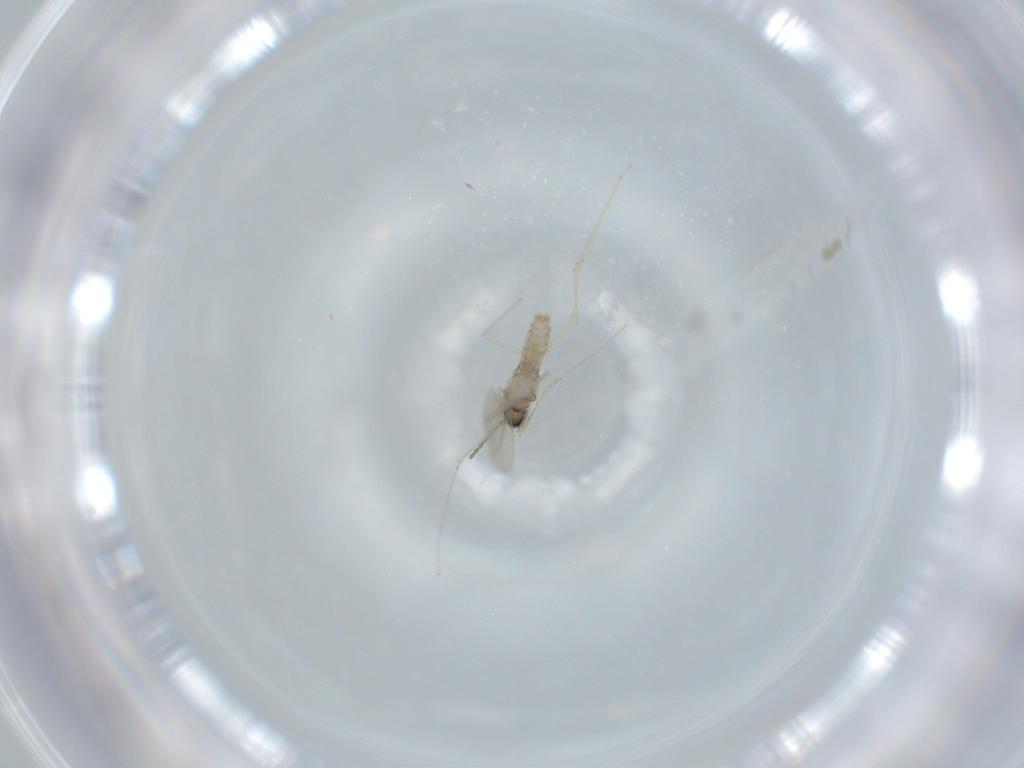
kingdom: Animalia
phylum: Arthropoda
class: Insecta
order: Diptera
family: Cecidomyiidae
